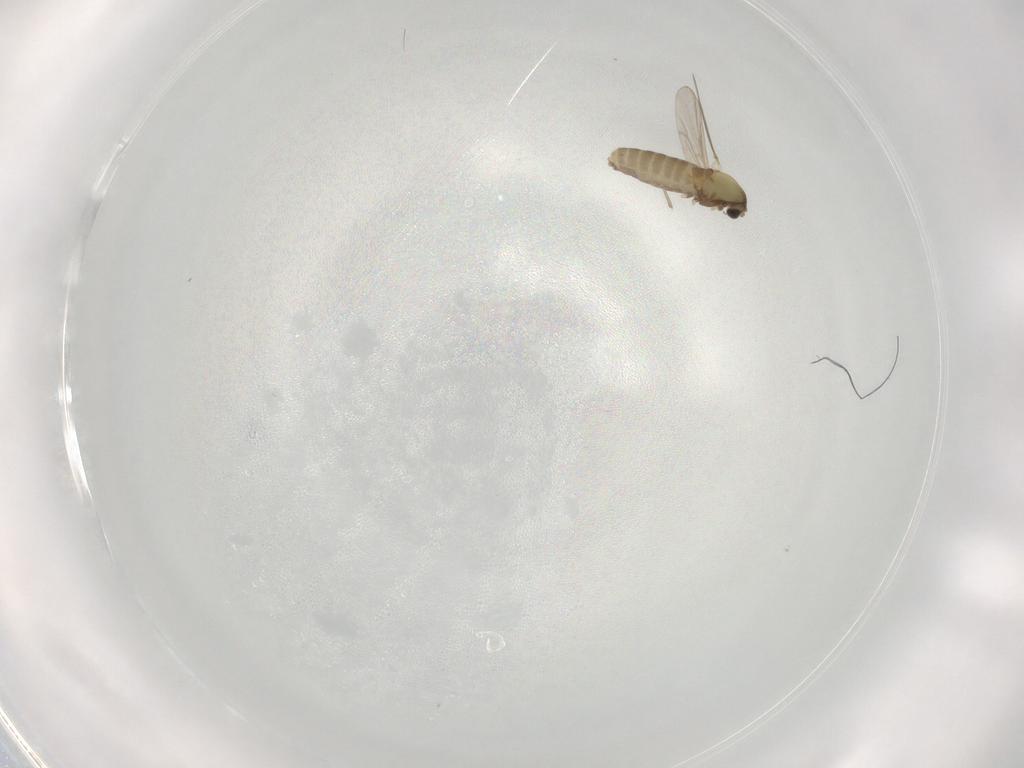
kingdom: Animalia
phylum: Arthropoda
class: Insecta
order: Diptera
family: Chironomidae
